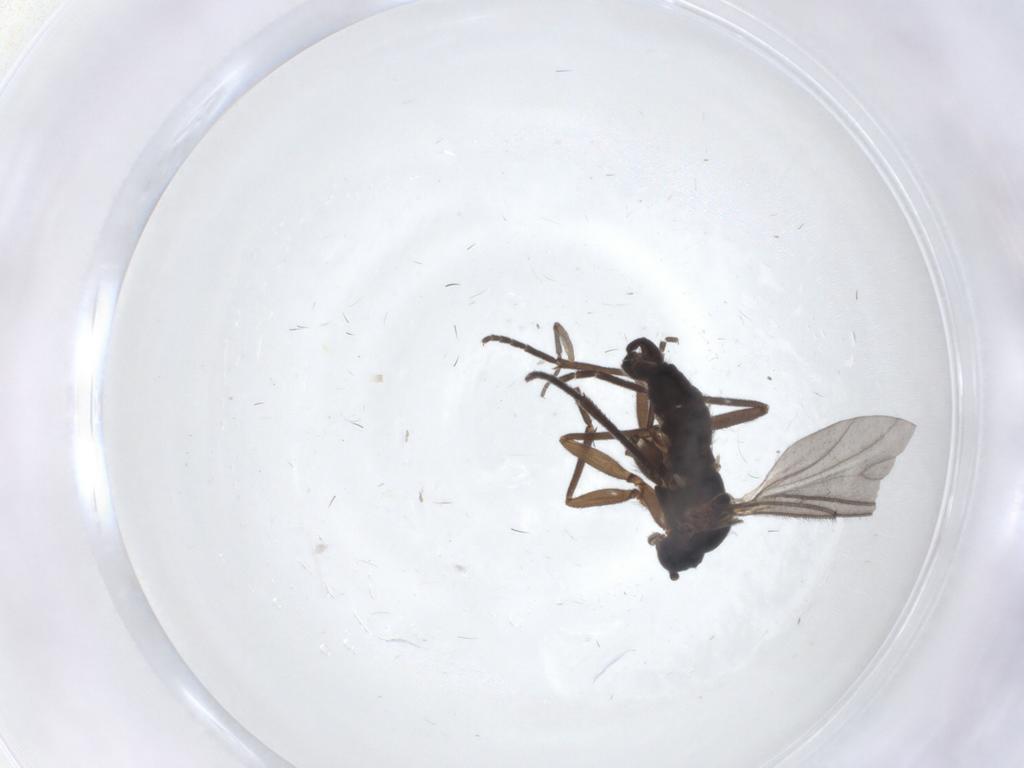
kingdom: Animalia
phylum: Arthropoda
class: Insecta
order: Diptera
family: Sciaridae
